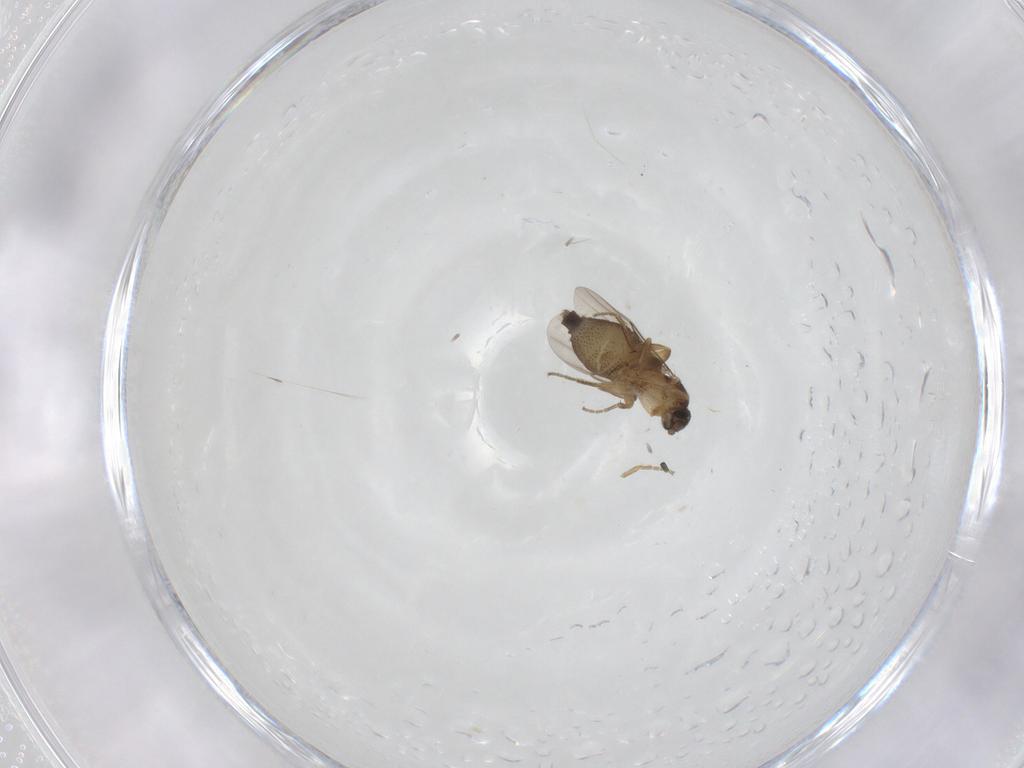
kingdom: Animalia
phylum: Arthropoda
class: Insecta
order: Diptera
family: Phoridae
